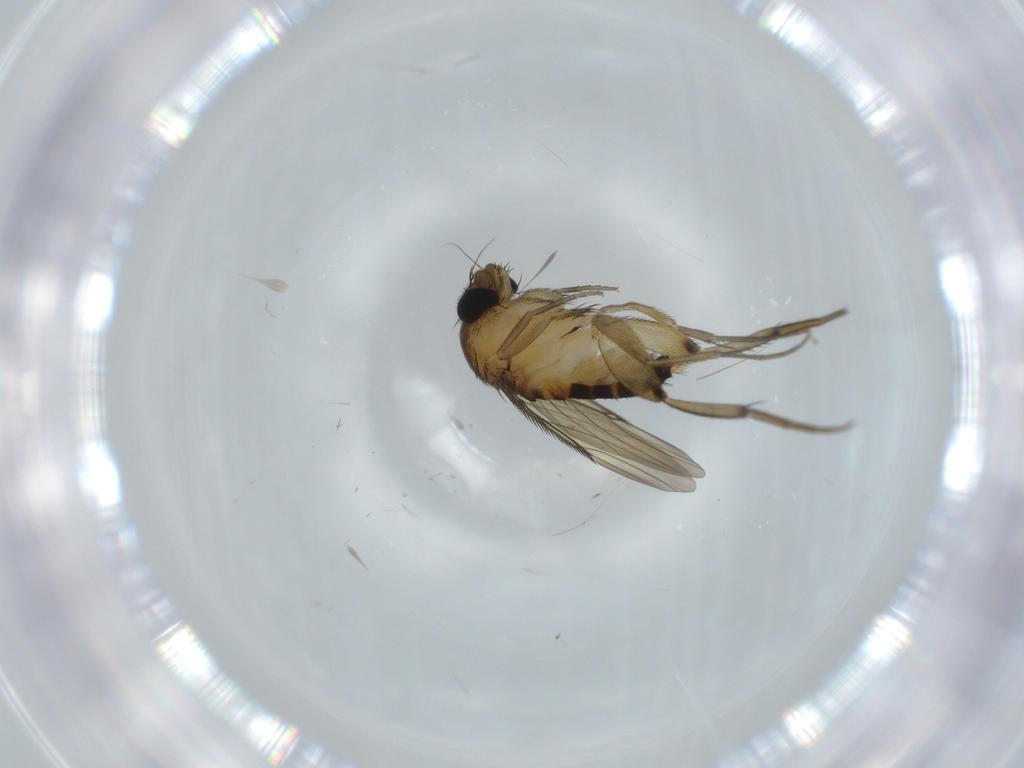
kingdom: Animalia
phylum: Arthropoda
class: Insecta
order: Diptera
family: Phoridae
